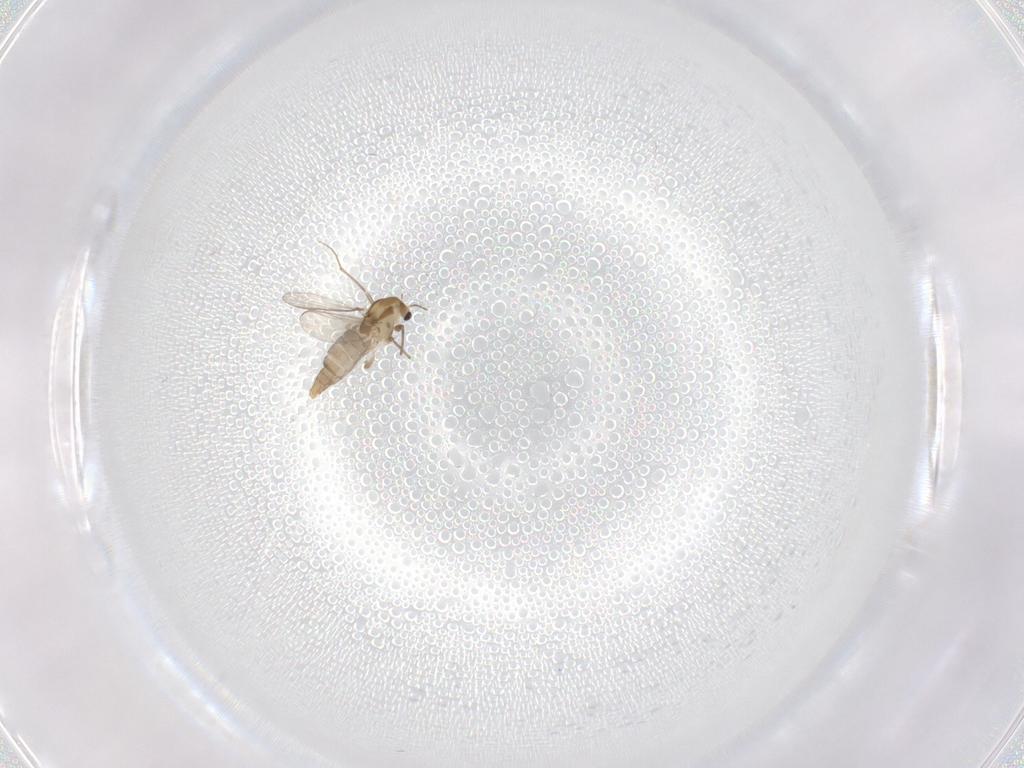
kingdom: Animalia
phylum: Arthropoda
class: Insecta
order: Diptera
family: Chironomidae
